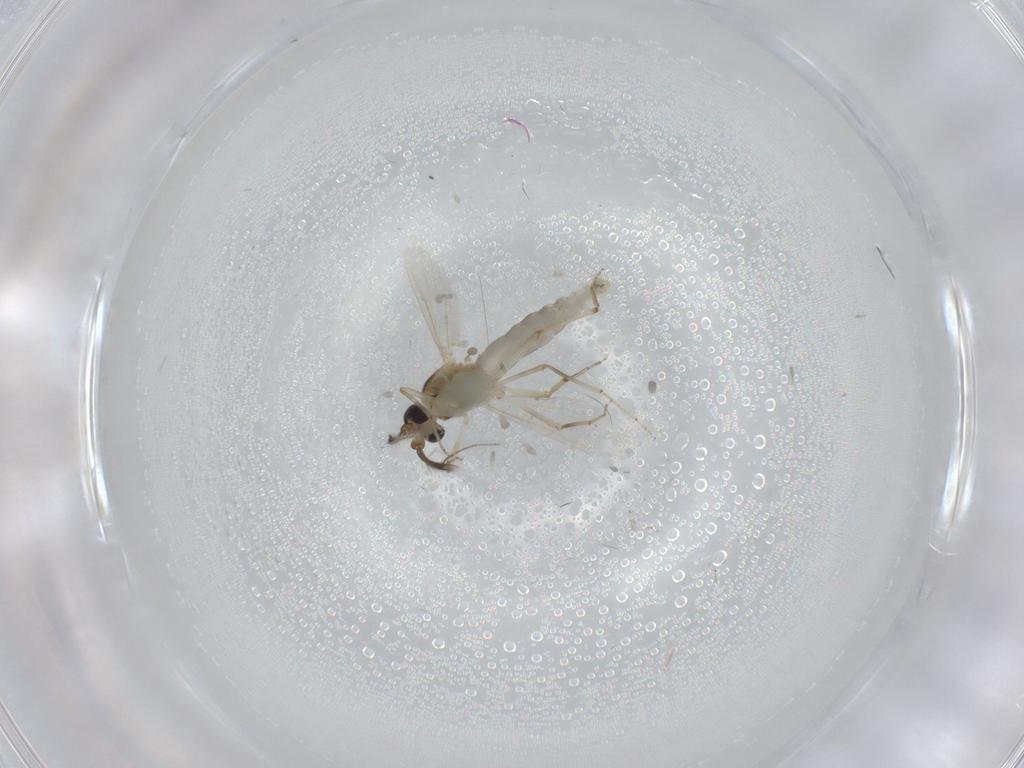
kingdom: Animalia
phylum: Arthropoda
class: Insecta
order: Diptera
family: Ceratopogonidae
